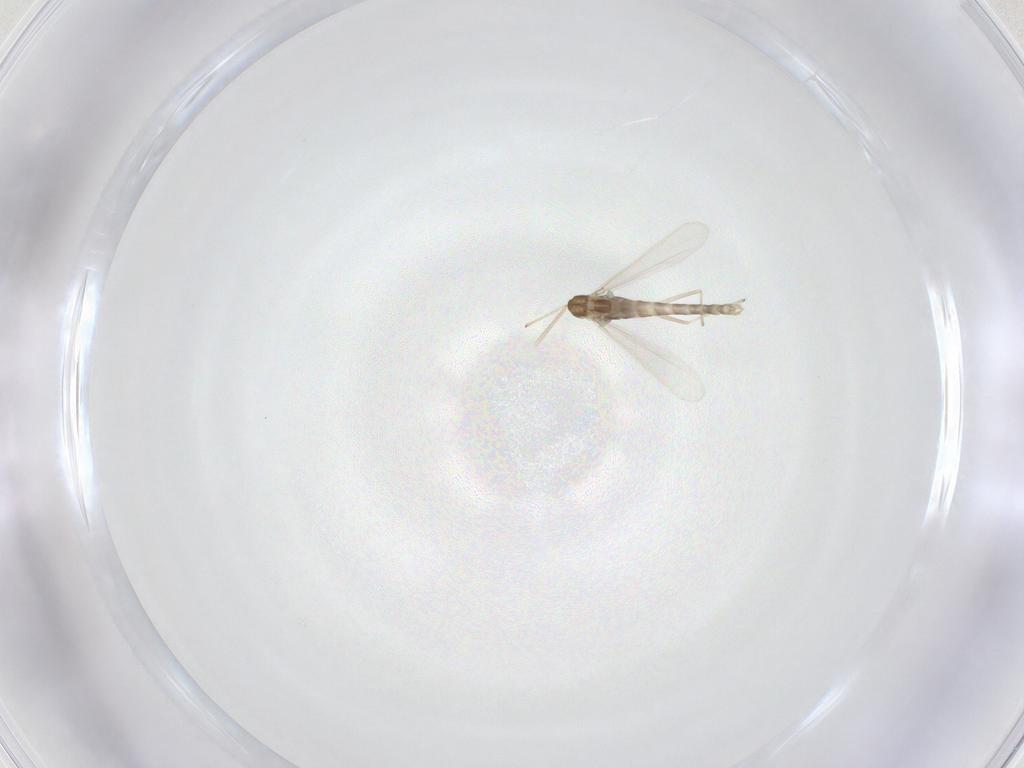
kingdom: Animalia
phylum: Arthropoda
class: Insecta
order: Diptera
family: Chironomidae
